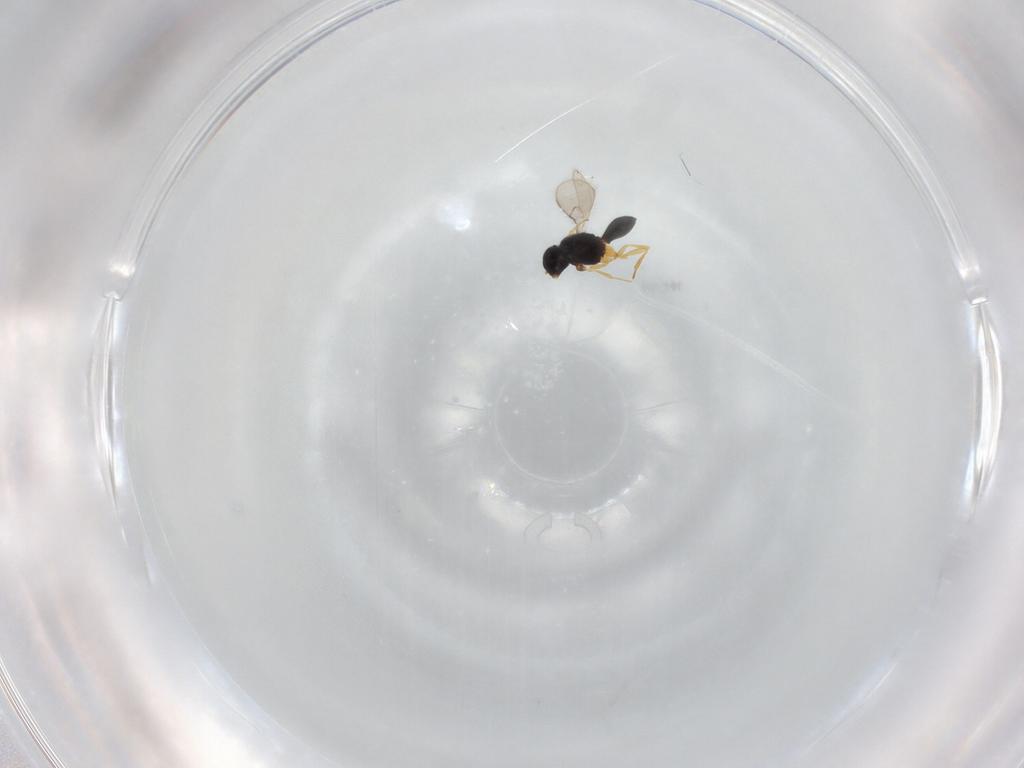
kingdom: Animalia
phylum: Arthropoda
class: Insecta
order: Hymenoptera
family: Scelionidae
